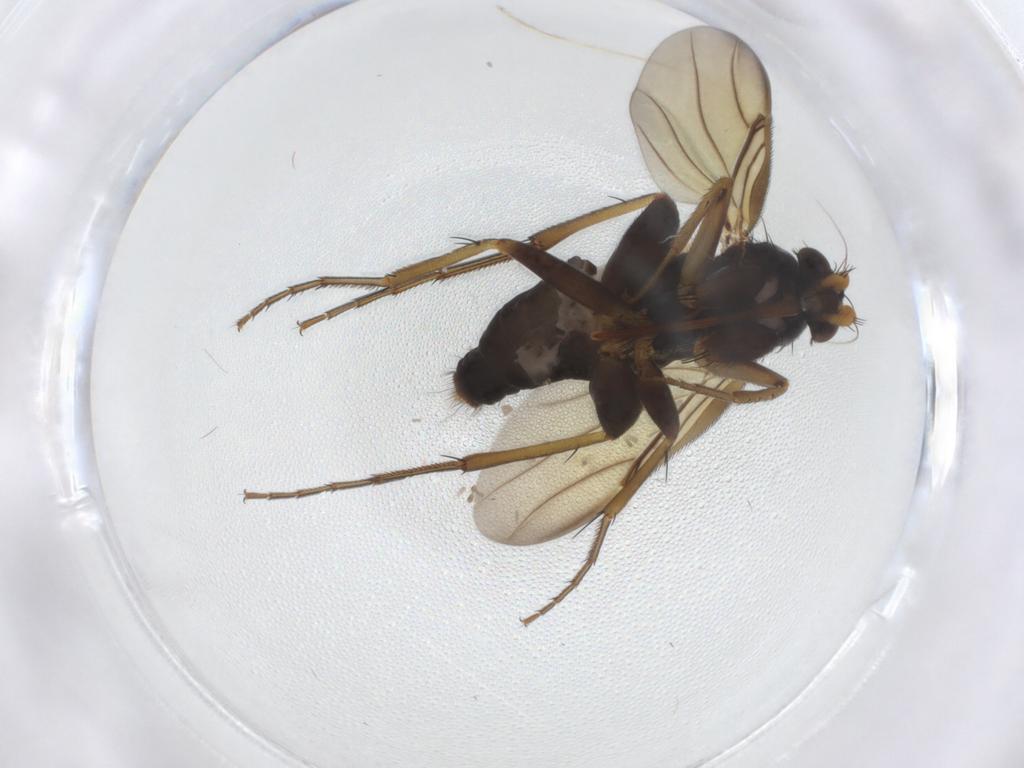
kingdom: Animalia
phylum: Arthropoda
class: Insecta
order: Diptera
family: Phoridae
